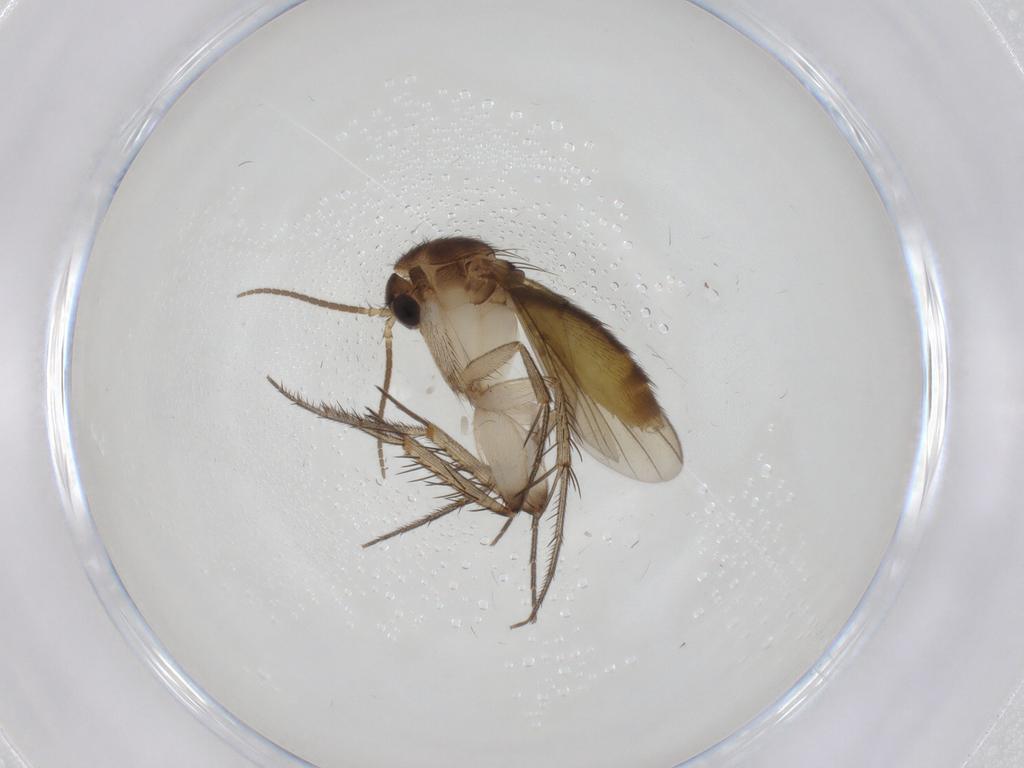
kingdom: Animalia
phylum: Arthropoda
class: Insecta
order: Diptera
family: Mycetophilidae
